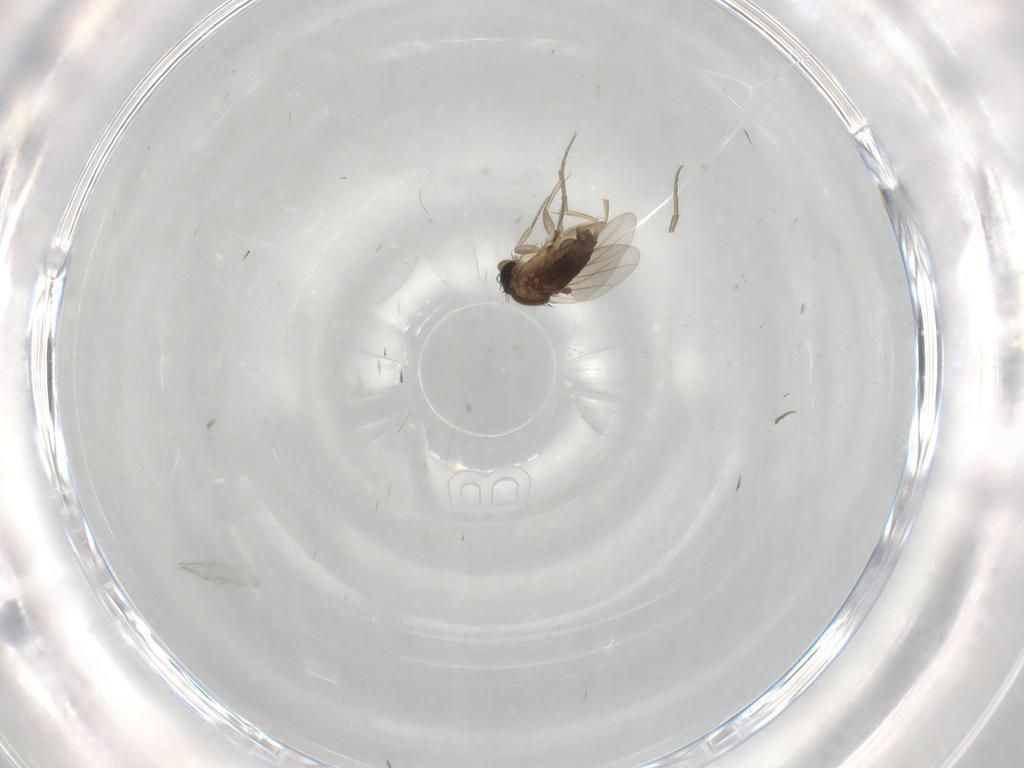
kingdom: Animalia
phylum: Arthropoda
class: Insecta
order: Diptera
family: Phoridae
